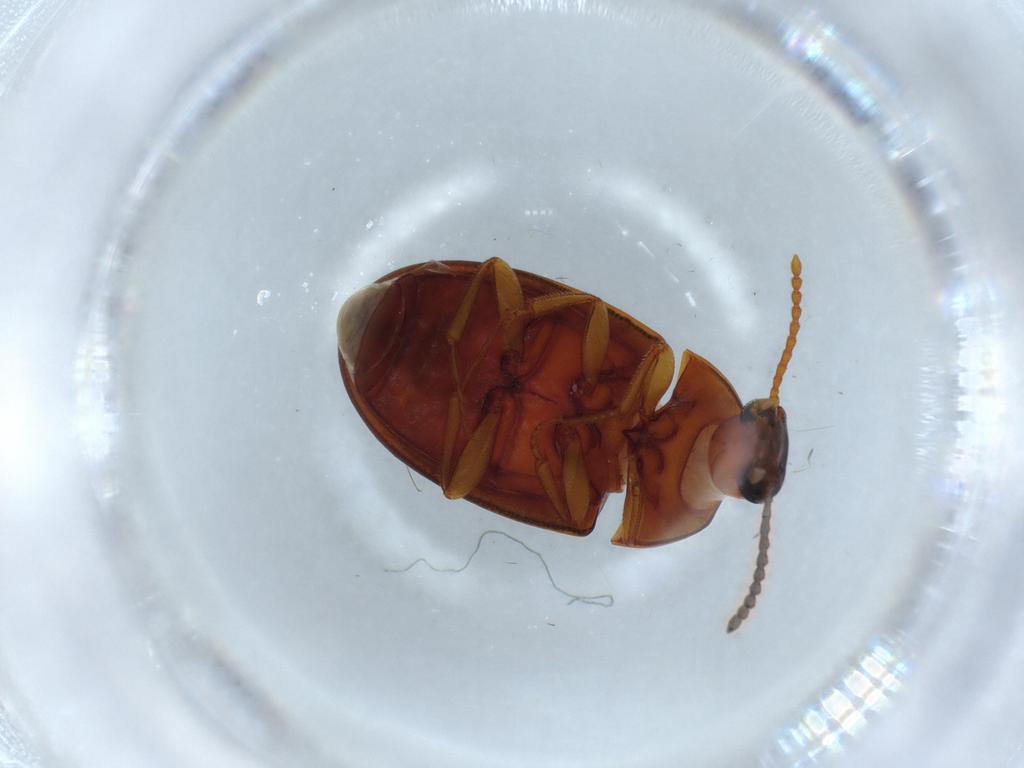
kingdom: Animalia
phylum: Arthropoda
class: Insecta
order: Coleoptera
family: Brentidae
